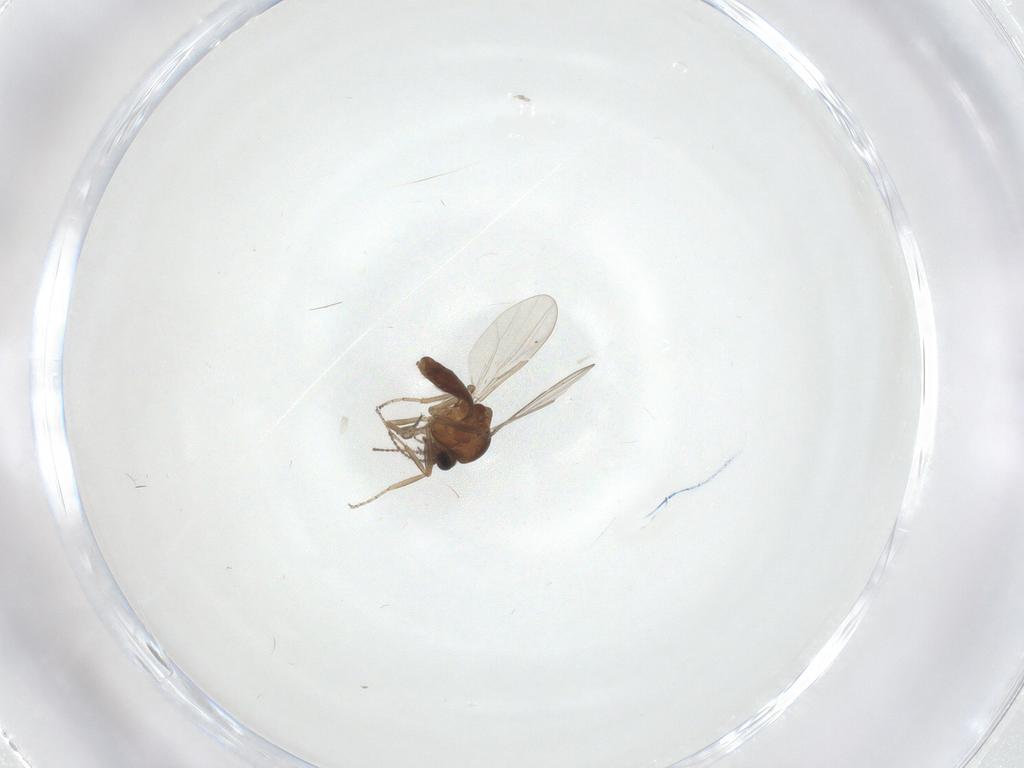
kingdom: Animalia
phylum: Arthropoda
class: Insecta
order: Diptera
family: Ceratopogonidae
